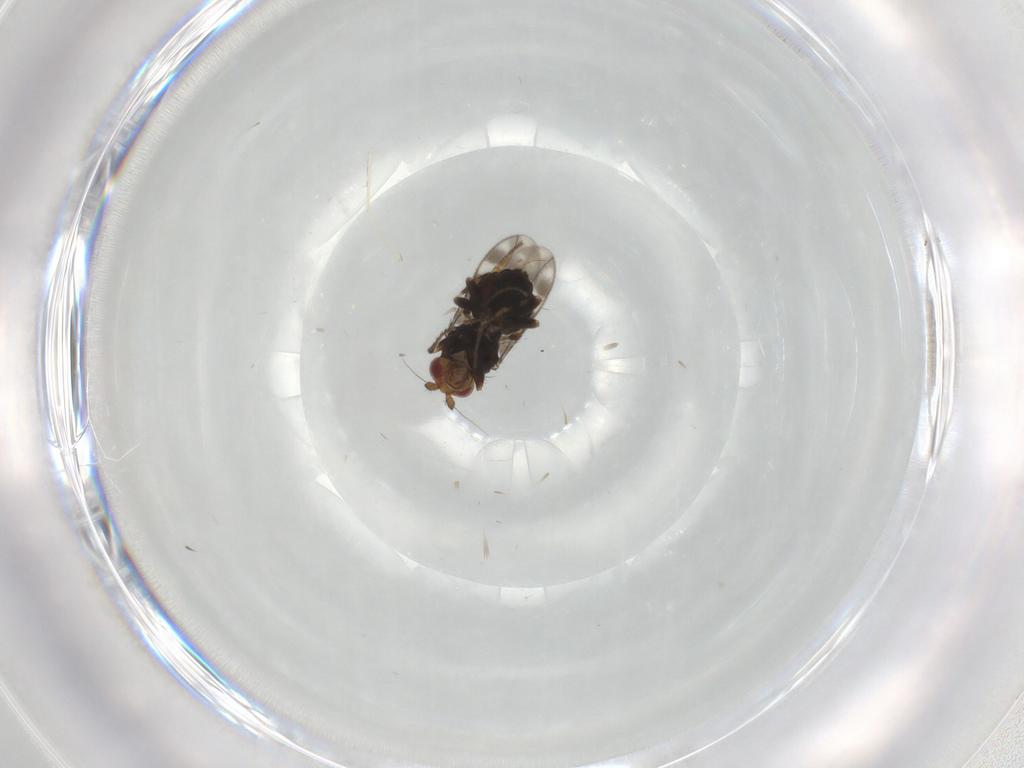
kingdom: Animalia
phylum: Arthropoda
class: Insecta
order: Diptera
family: Sphaeroceridae
